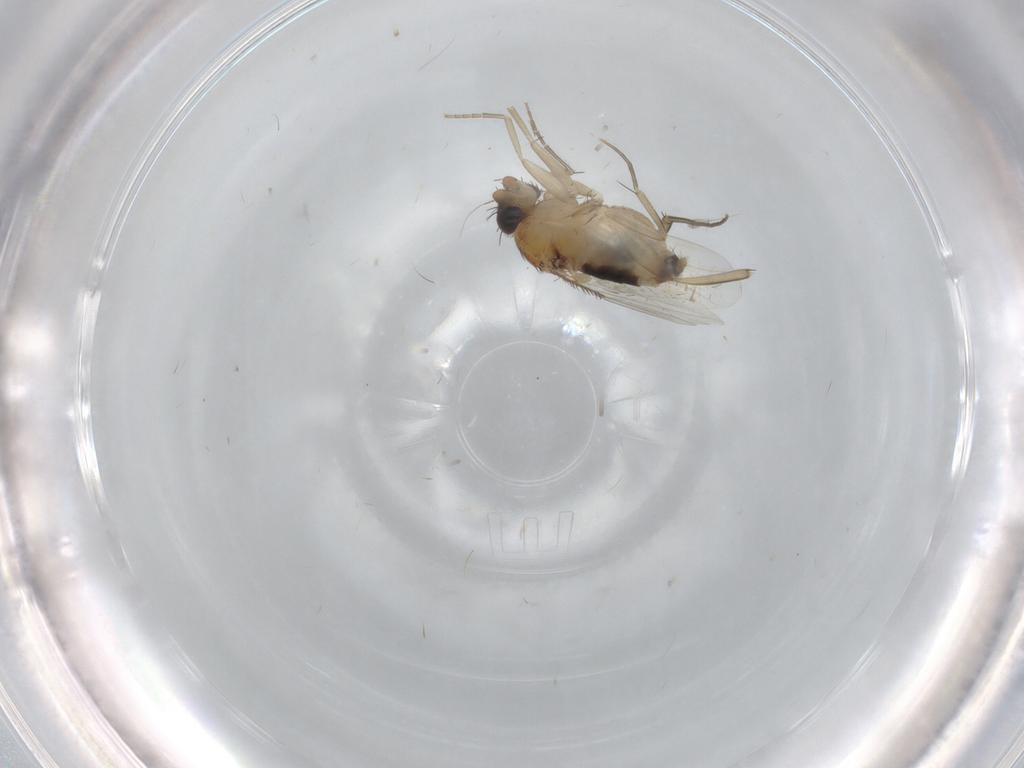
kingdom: Animalia
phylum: Arthropoda
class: Insecta
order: Diptera
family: Phoridae
